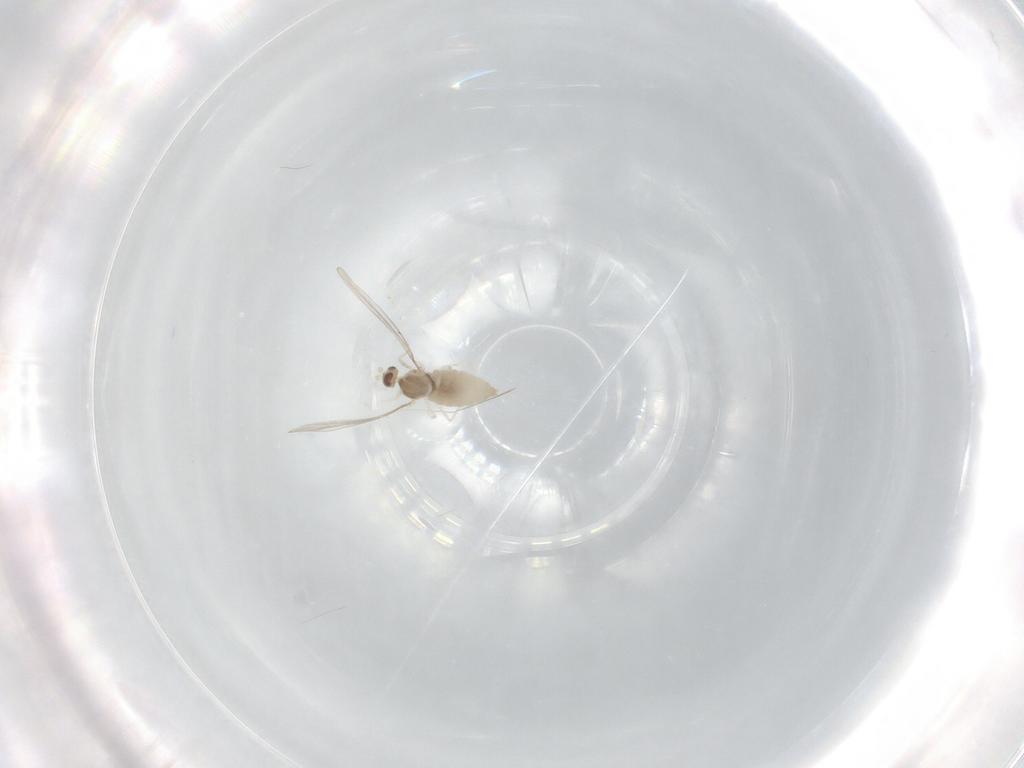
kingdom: Animalia
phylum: Arthropoda
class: Insecta
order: Diptera
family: Cecidomyiidae
